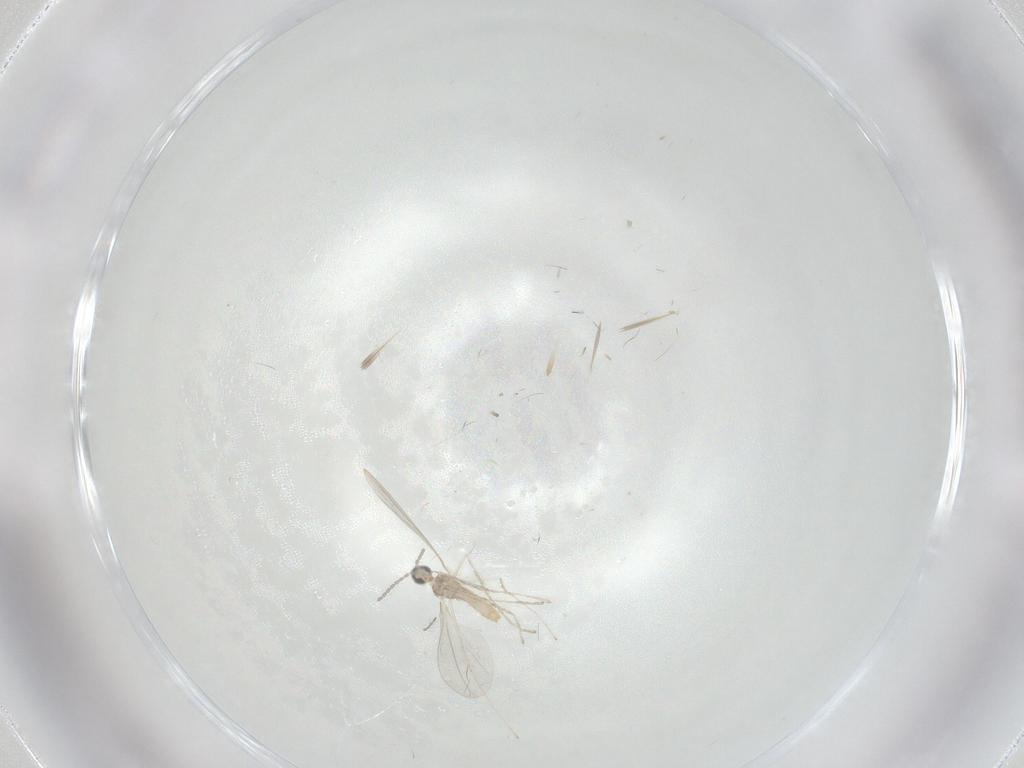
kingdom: Animalia
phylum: Arthropoda
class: Insecta
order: Diptera
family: Cecidomyiidae
